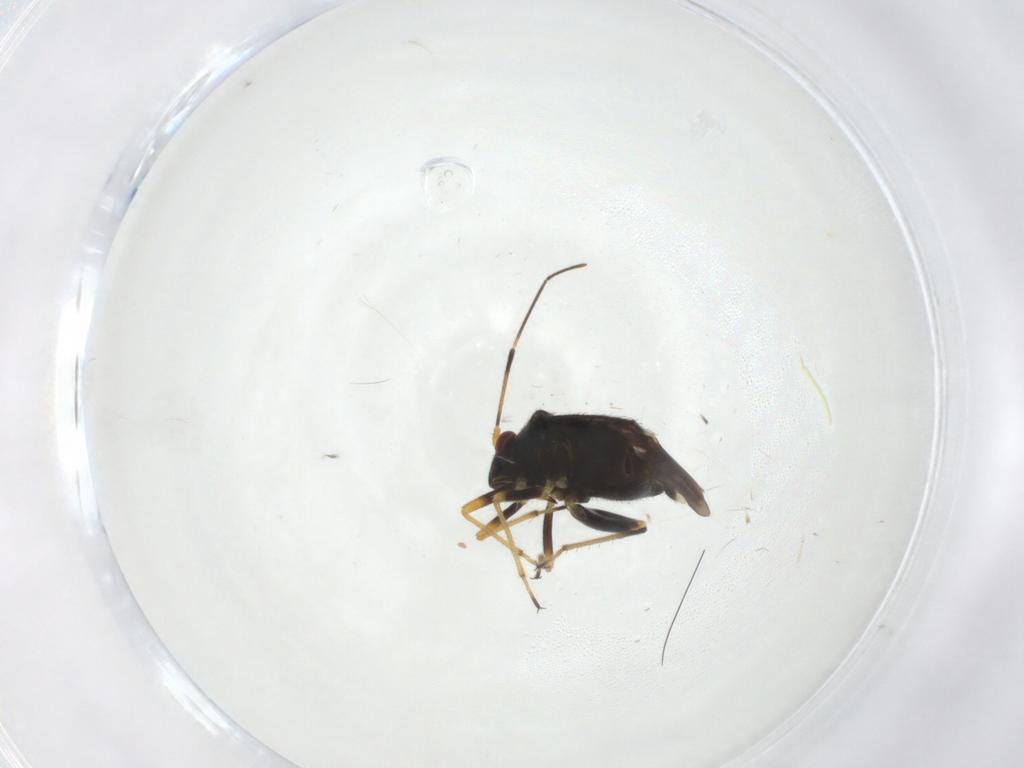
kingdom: Animalia
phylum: Arthropoda
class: Insecta
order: Hemiptera
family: Miridae
